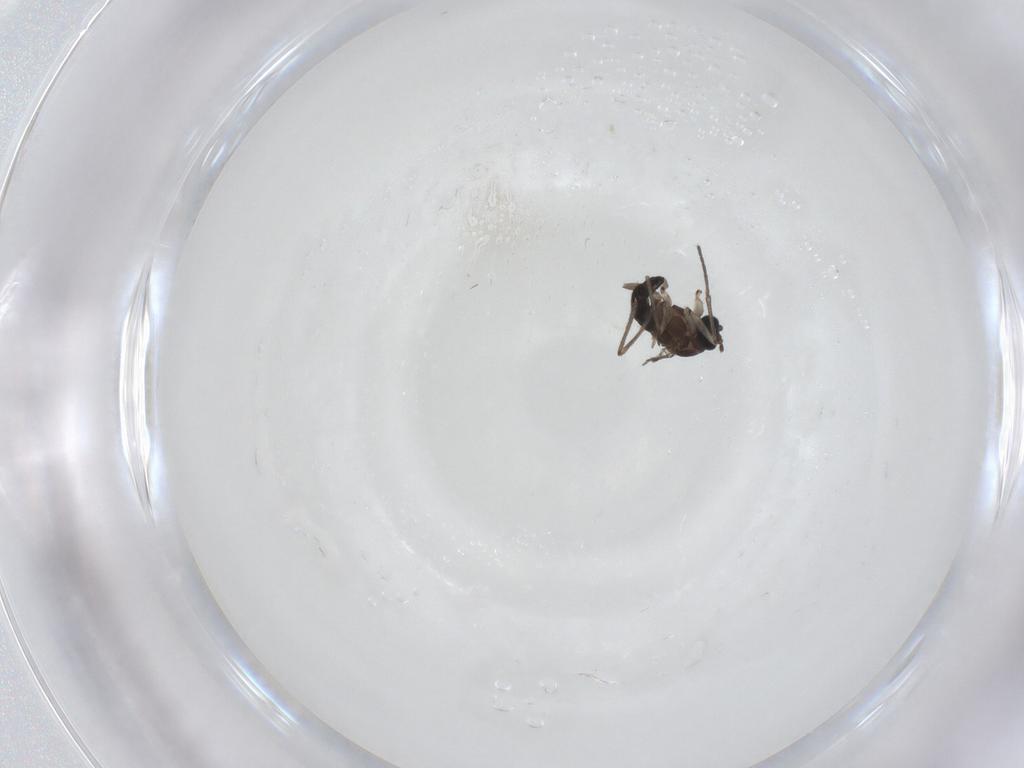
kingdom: Animalia
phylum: Arthropoda
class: Insecta
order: Diptera
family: Sciaridae
